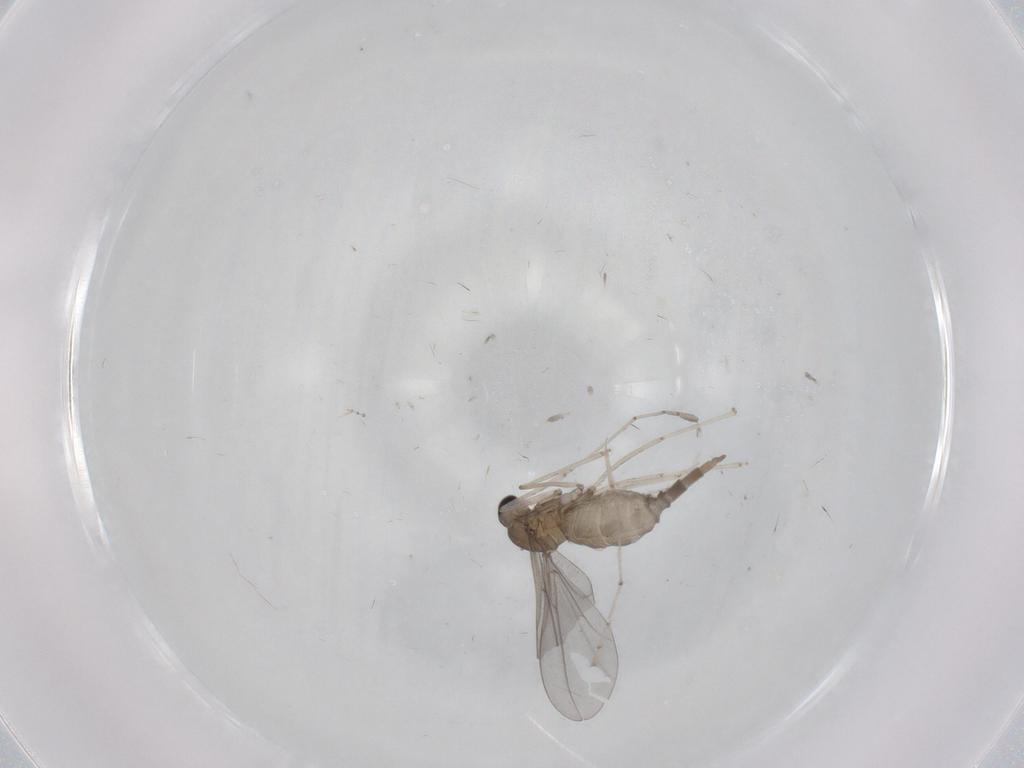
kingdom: Animalia
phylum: Arthropoda
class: Insecta
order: Diptera
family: Cecidomyiidae
